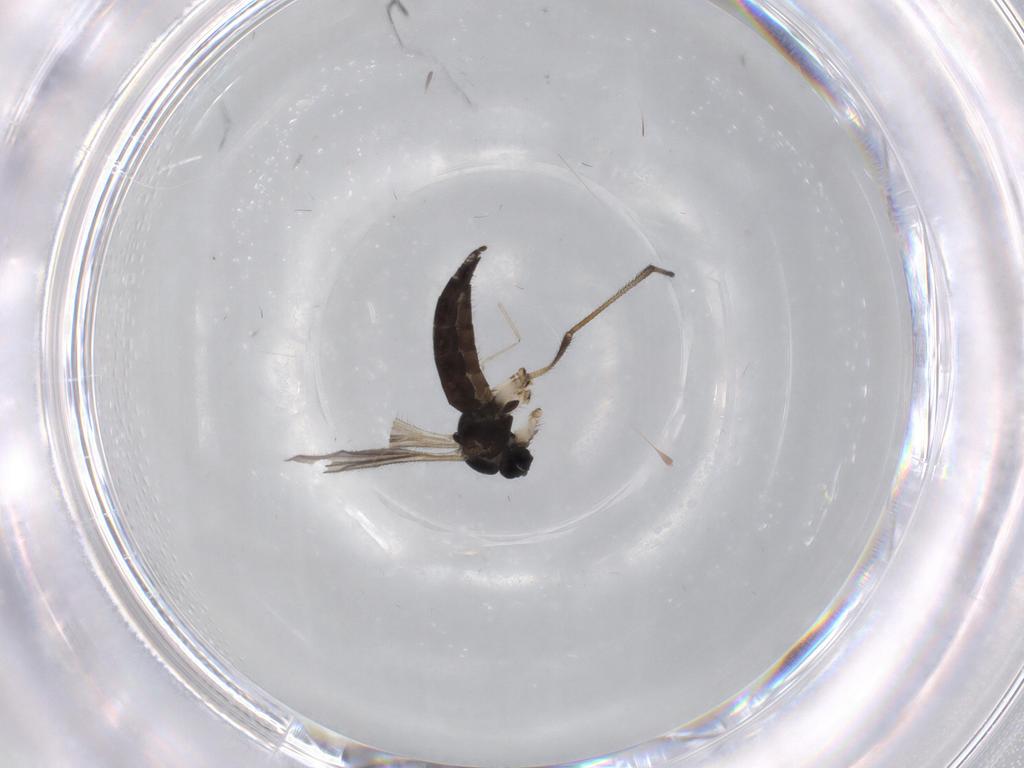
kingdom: Animalia
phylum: Arthropoda
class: Insecta
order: Diptera
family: Sciaridae
